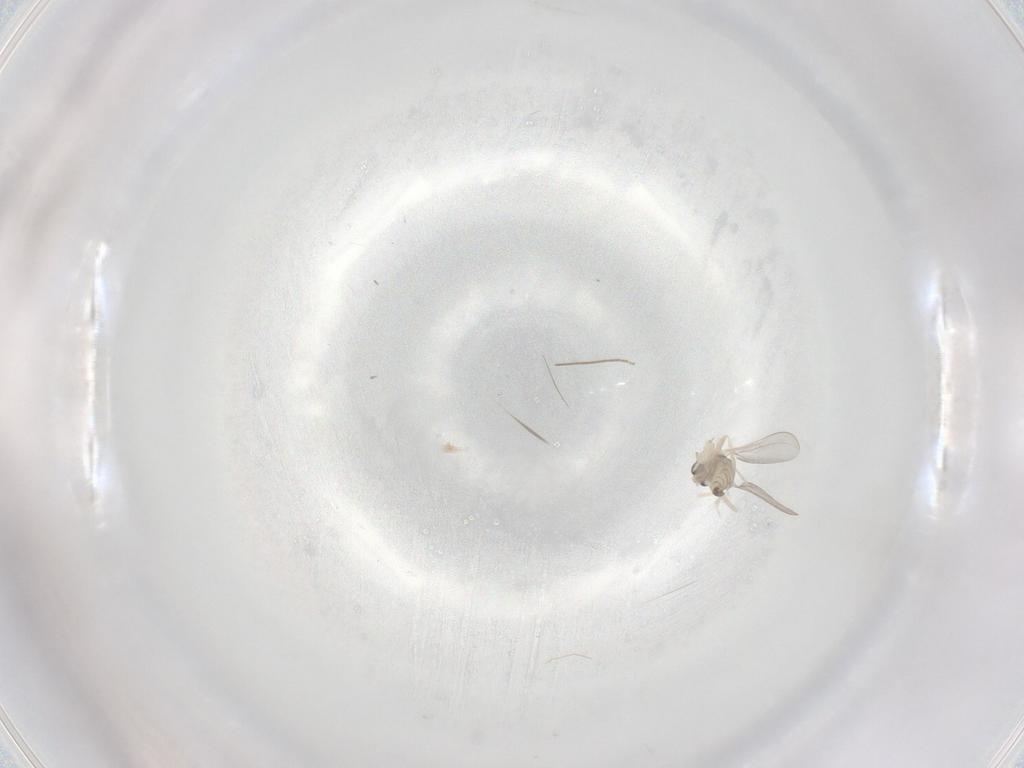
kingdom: Animalia
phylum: Arthropoda
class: Insecta
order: Diptera
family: Cecidomyiidae
